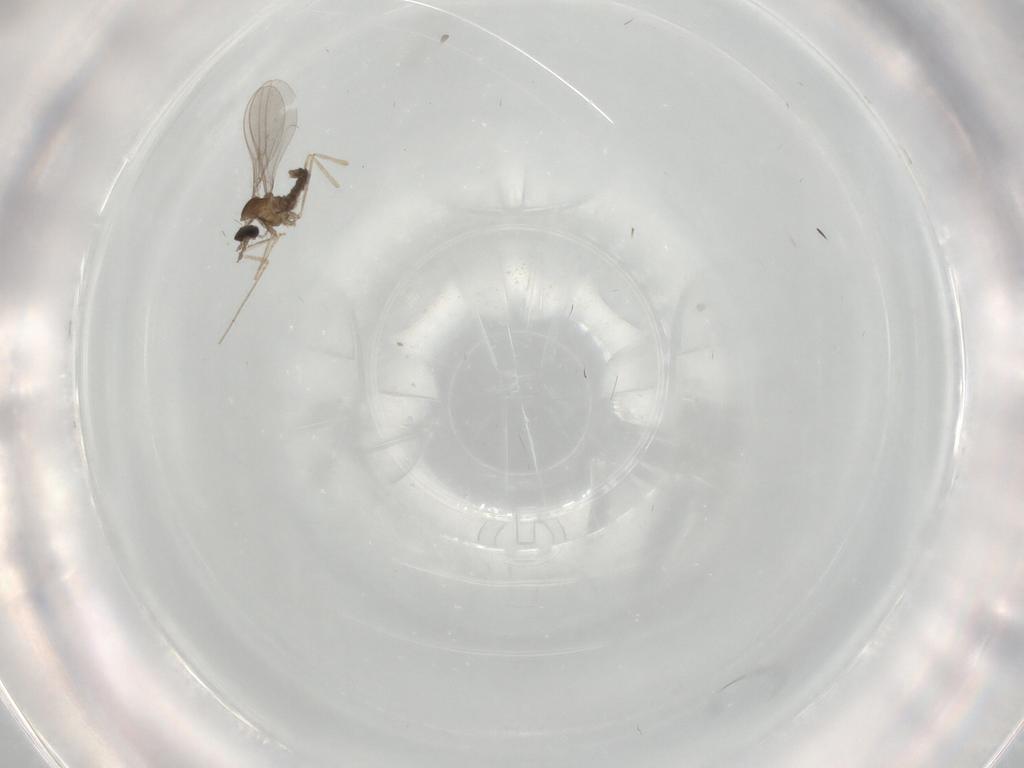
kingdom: Animalia
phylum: Arthropoda
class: Insecta
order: Diptera
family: Cecidomyiidae
